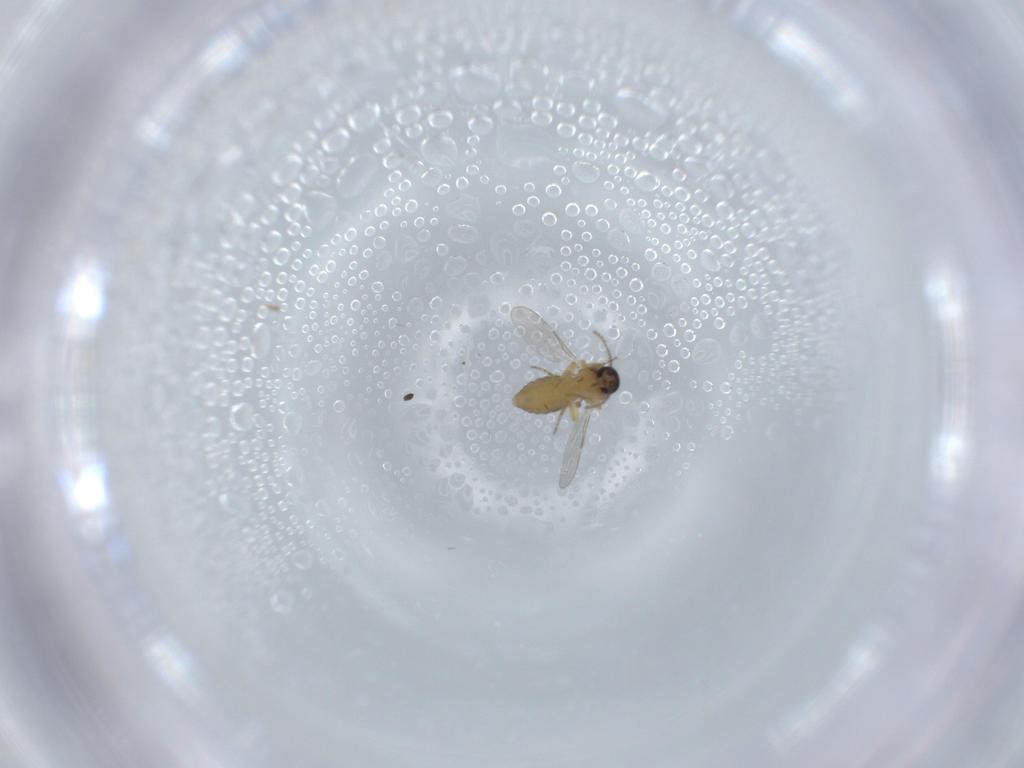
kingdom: Animalia
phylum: Arthropoda
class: Insecta
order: Diptera
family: Ceratopogonidae
